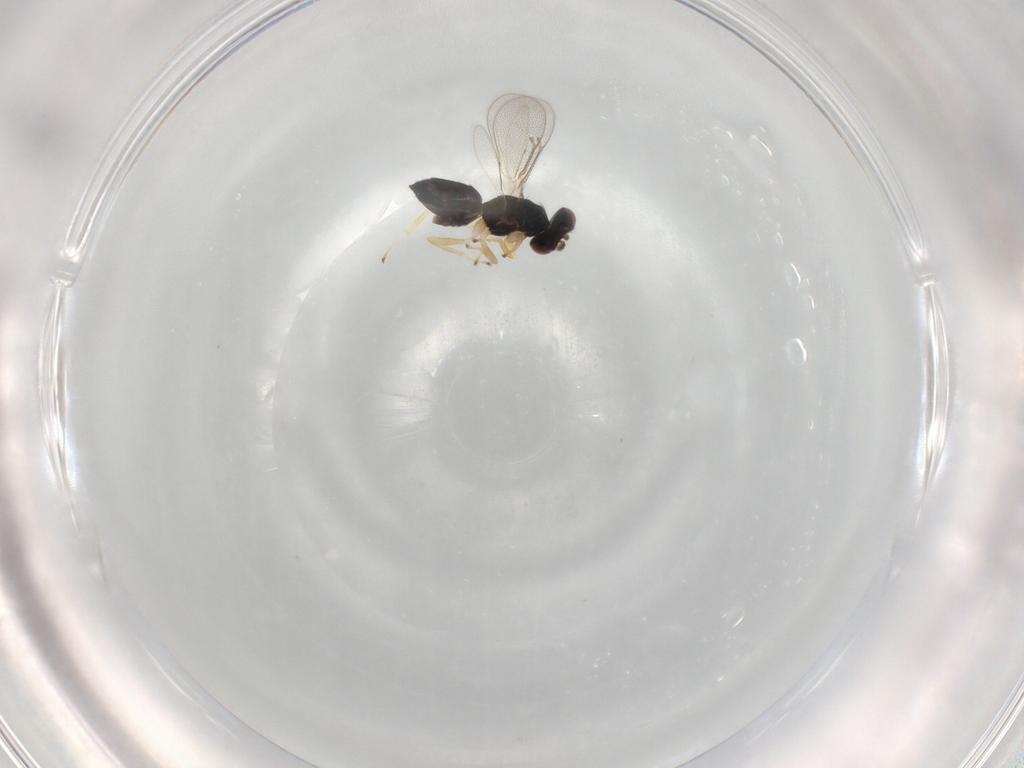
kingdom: Animalia
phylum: Arthropoda
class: Insecta
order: Hymenoptera
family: Eulophidae
